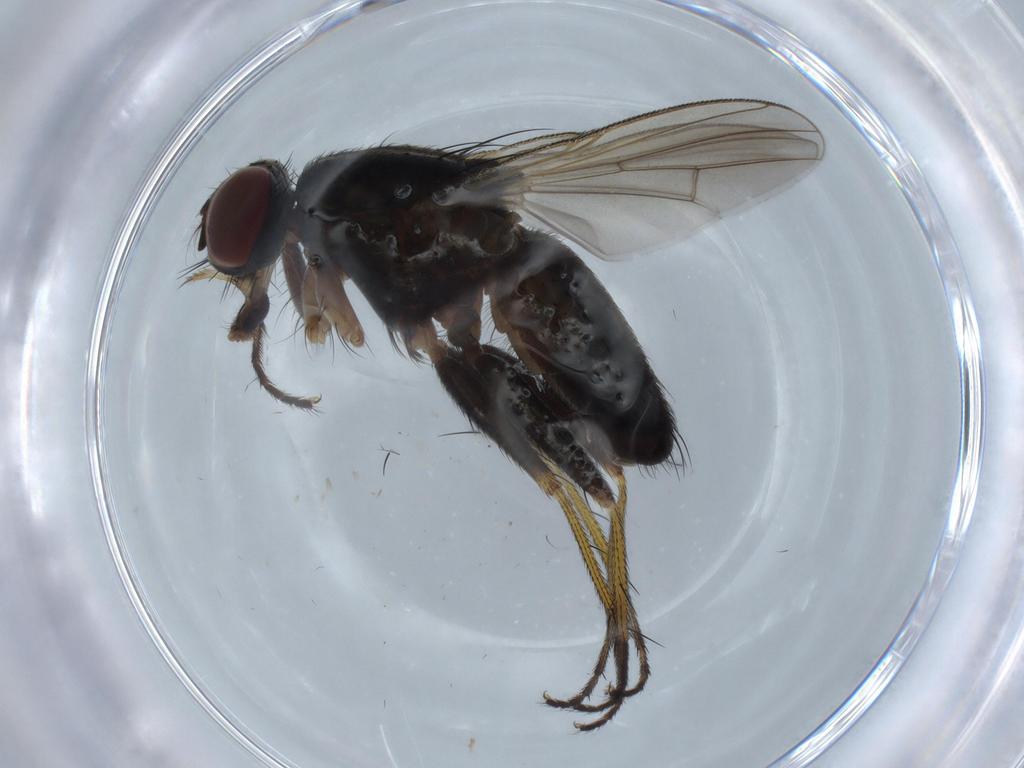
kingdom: Animalia
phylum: Arthropoda
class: Insecta
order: Diptera
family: Muscidae
